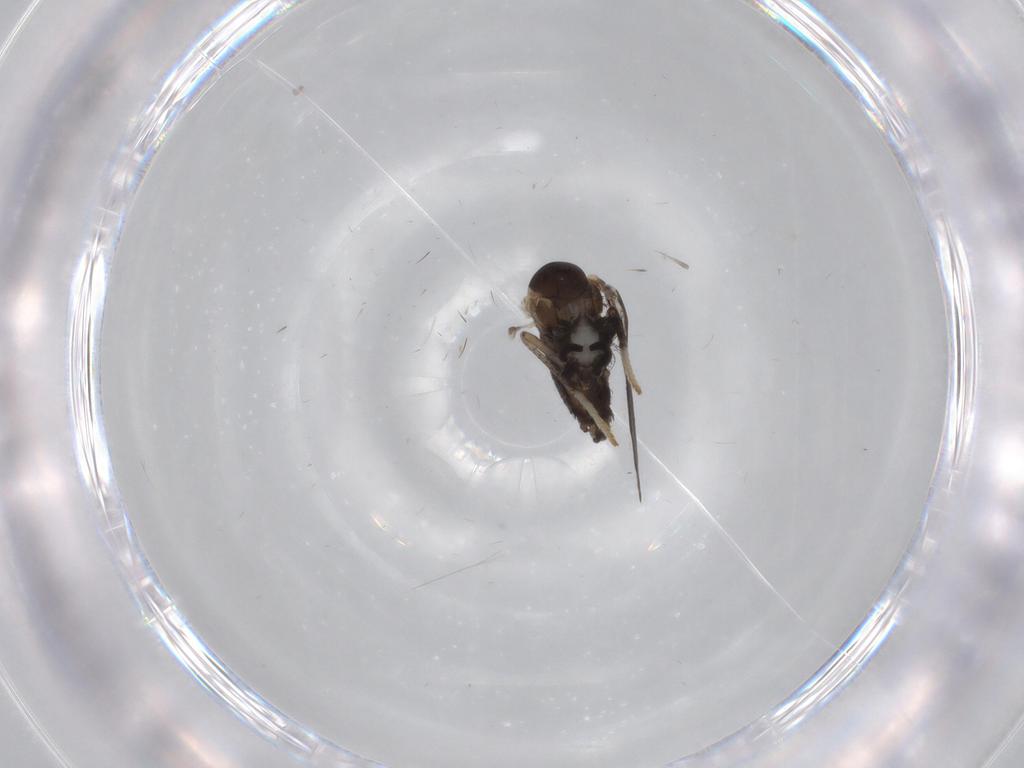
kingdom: Animalia
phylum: Arthropoda
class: Insecta
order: Diptera
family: Psychodidae
